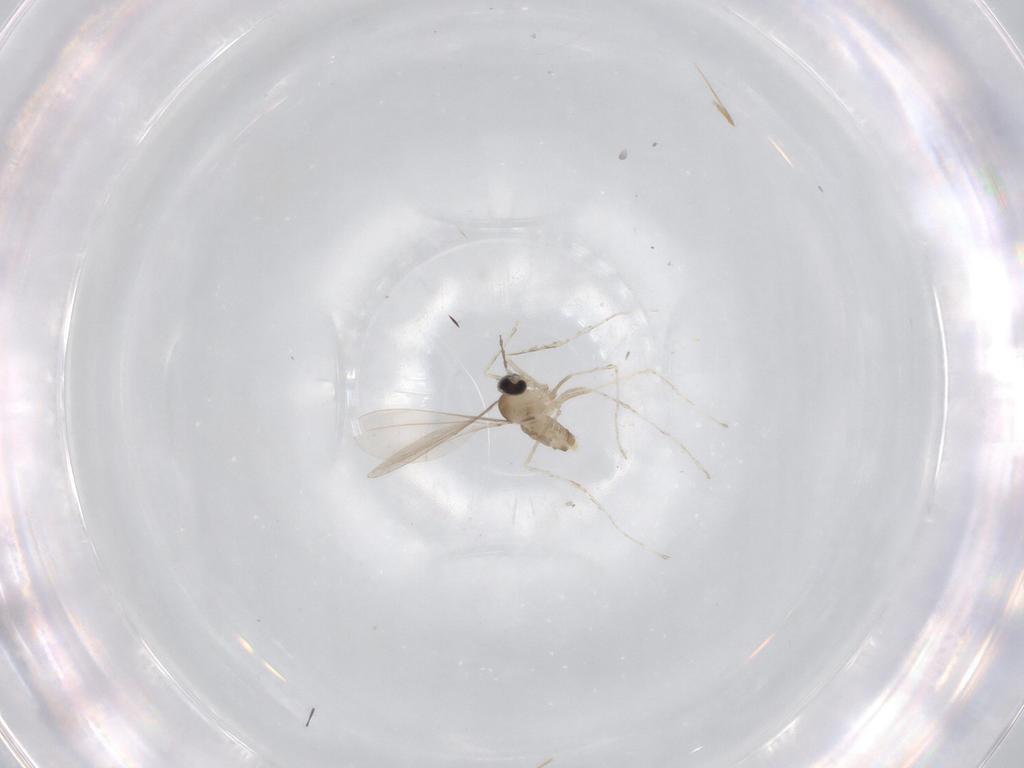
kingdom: Animalia
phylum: Arthropoda
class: Insecta
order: Diptera
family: Cecidomyiidae
